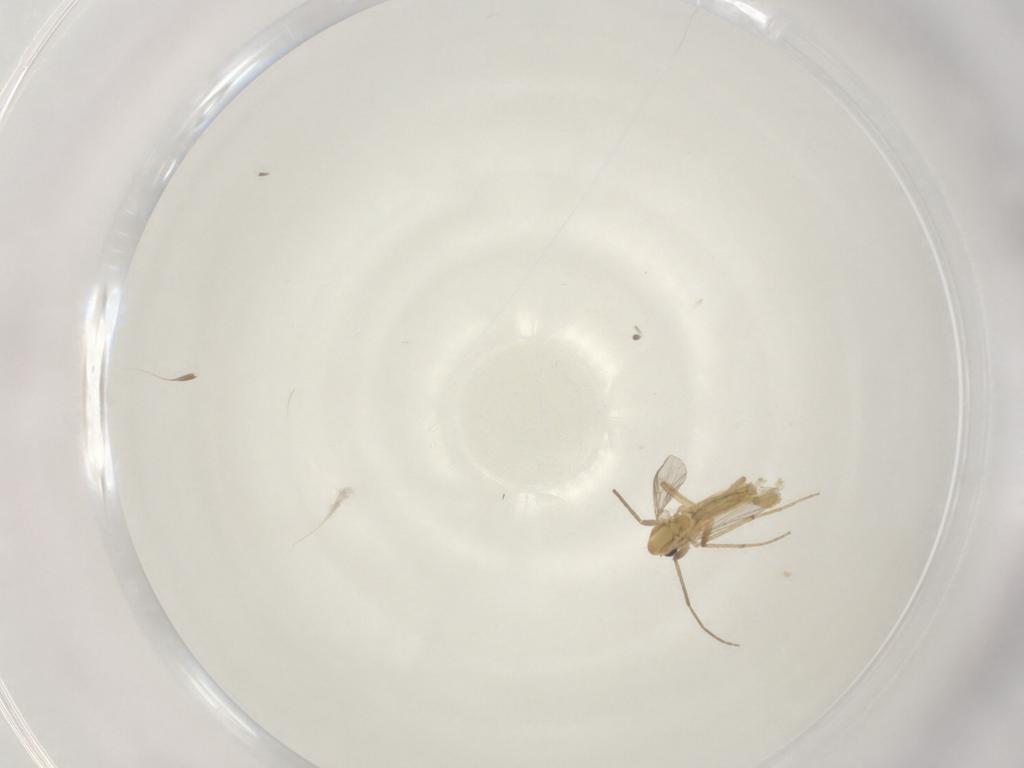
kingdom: Animalia
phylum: Arthropoda
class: Insecta
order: Diptera
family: Chironomidae
